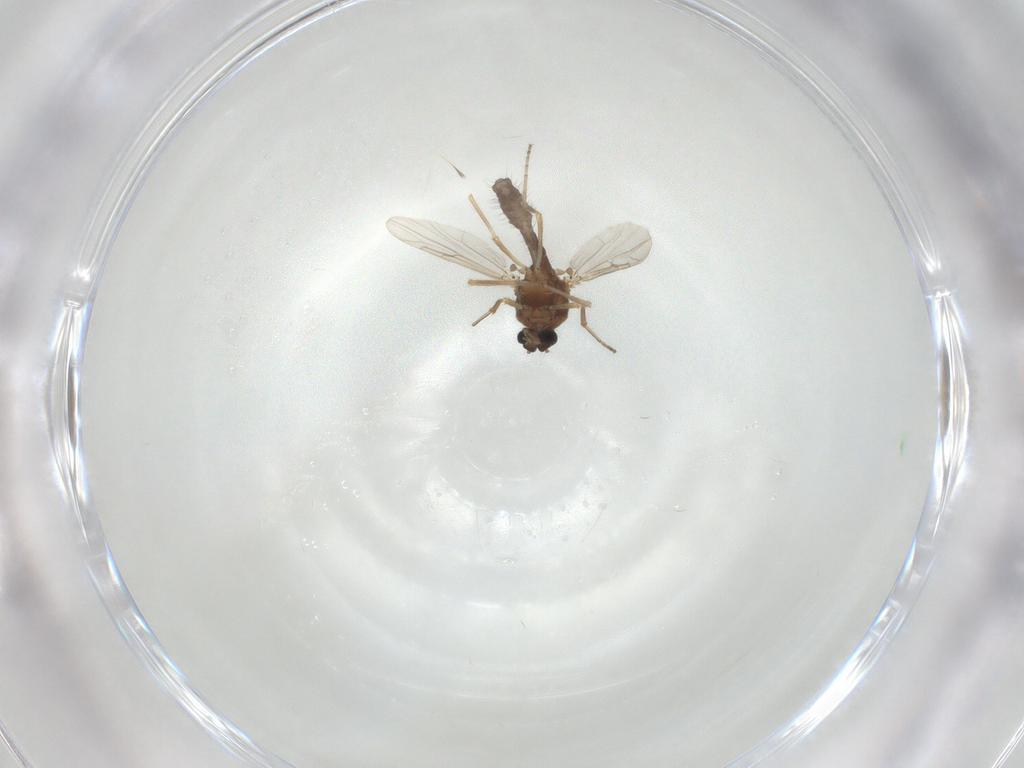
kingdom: Animalia
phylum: Arthropoda
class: Insecta
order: Diptera
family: Ceratopogonidae
